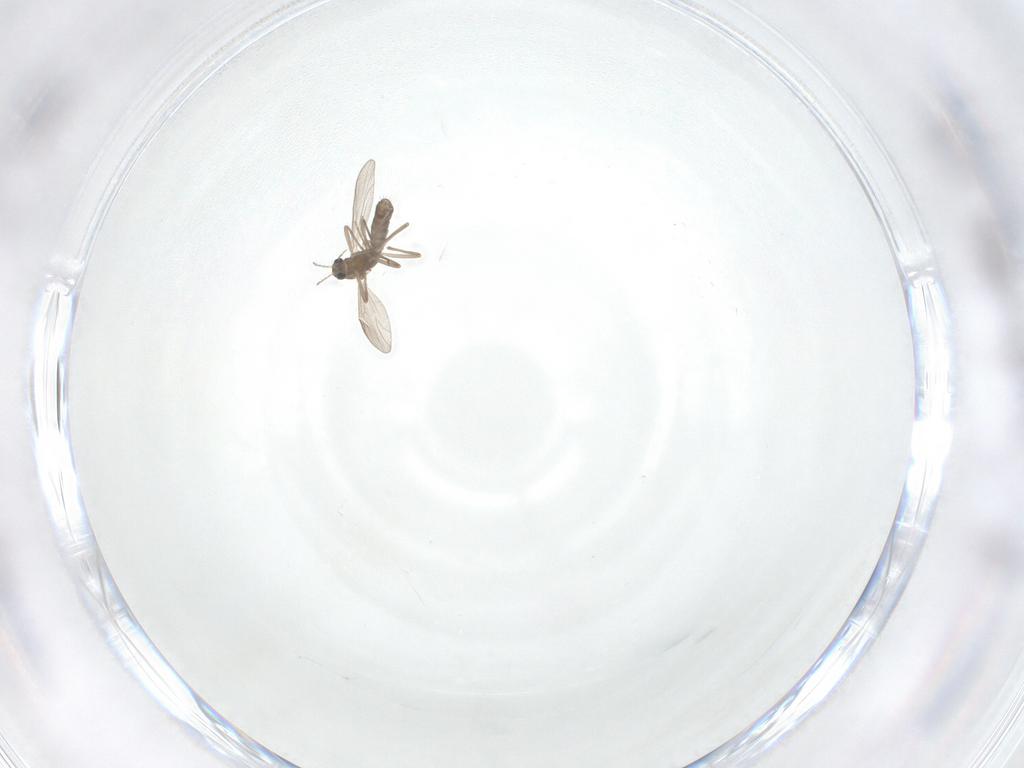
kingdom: Animalia
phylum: Arthropoda
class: Insecta
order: Diptera
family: Chironomidae
